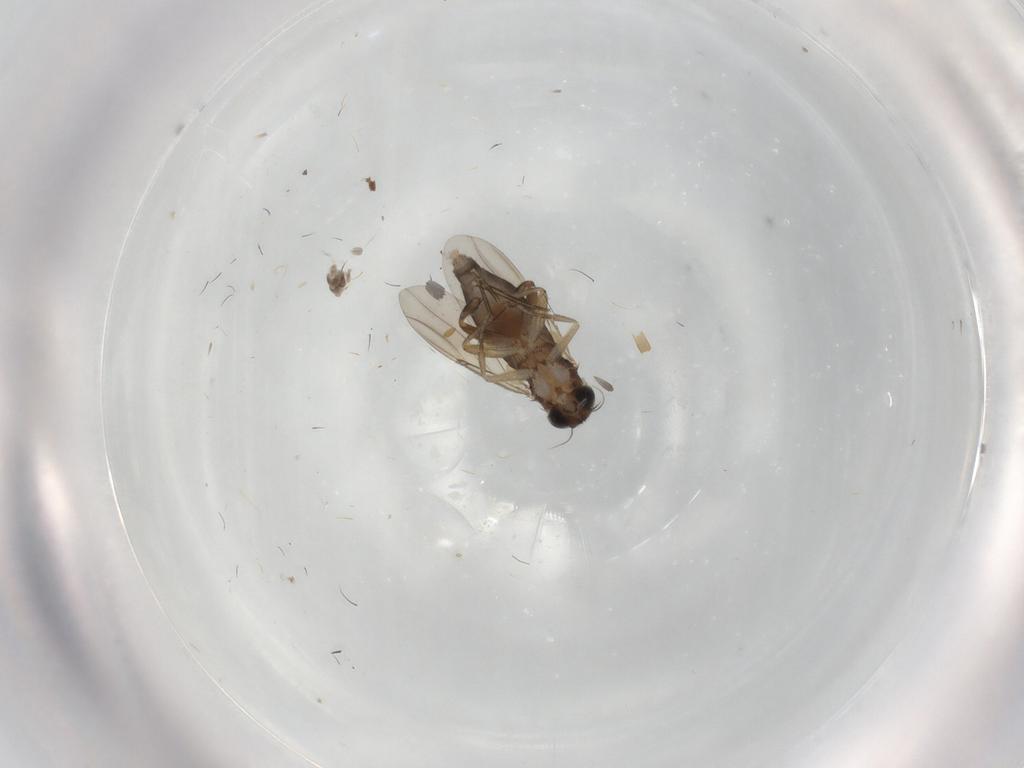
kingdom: Animalia
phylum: Arthropoda
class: Insecta
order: Diptera
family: Phoridae
